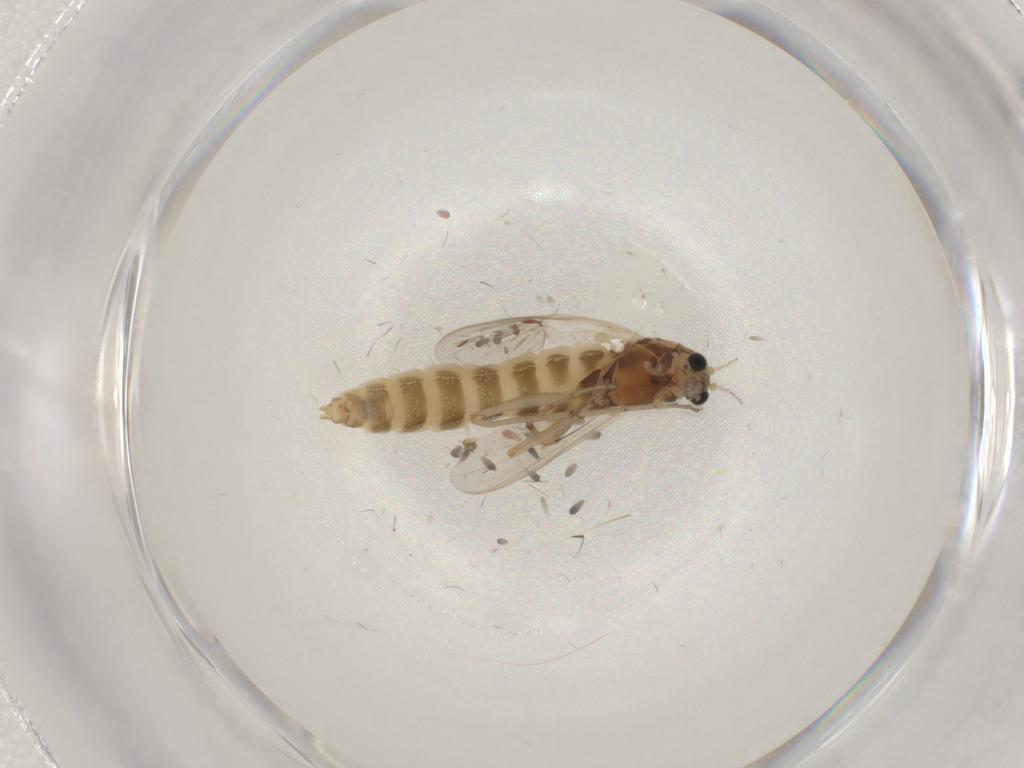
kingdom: Animalia
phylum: Arthropoda
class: Insecta
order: Diptera
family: Chironomidae
